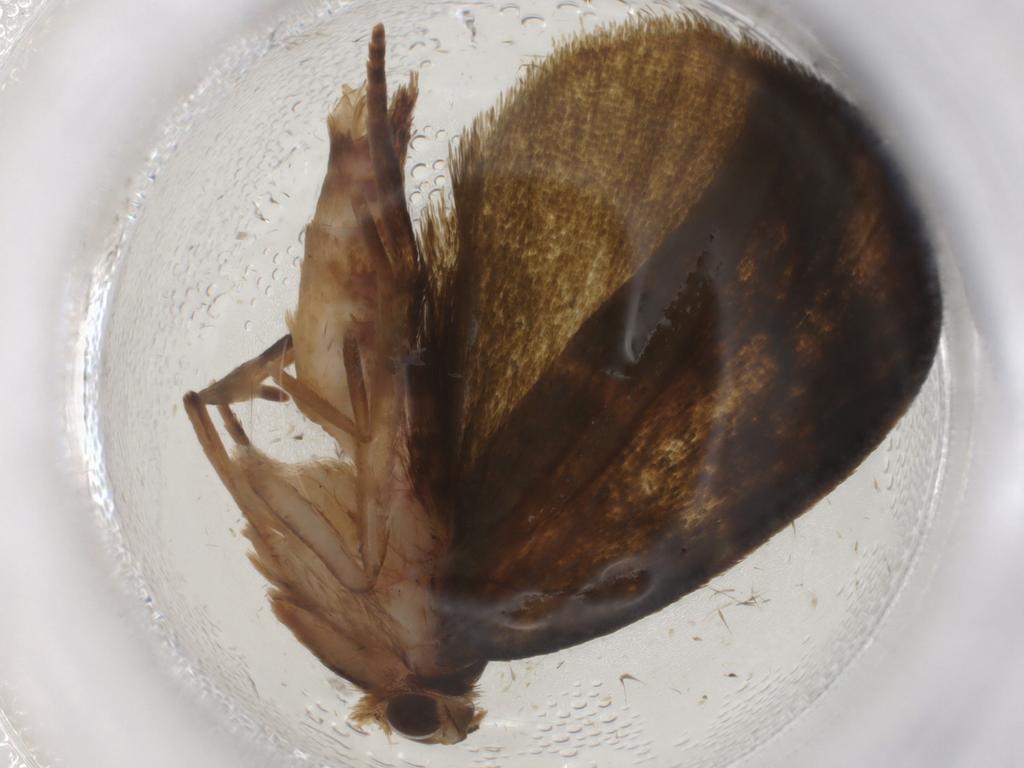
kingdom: Animalia
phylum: Arthropoda
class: Insecta
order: Lepidoptera
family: Geometridae
